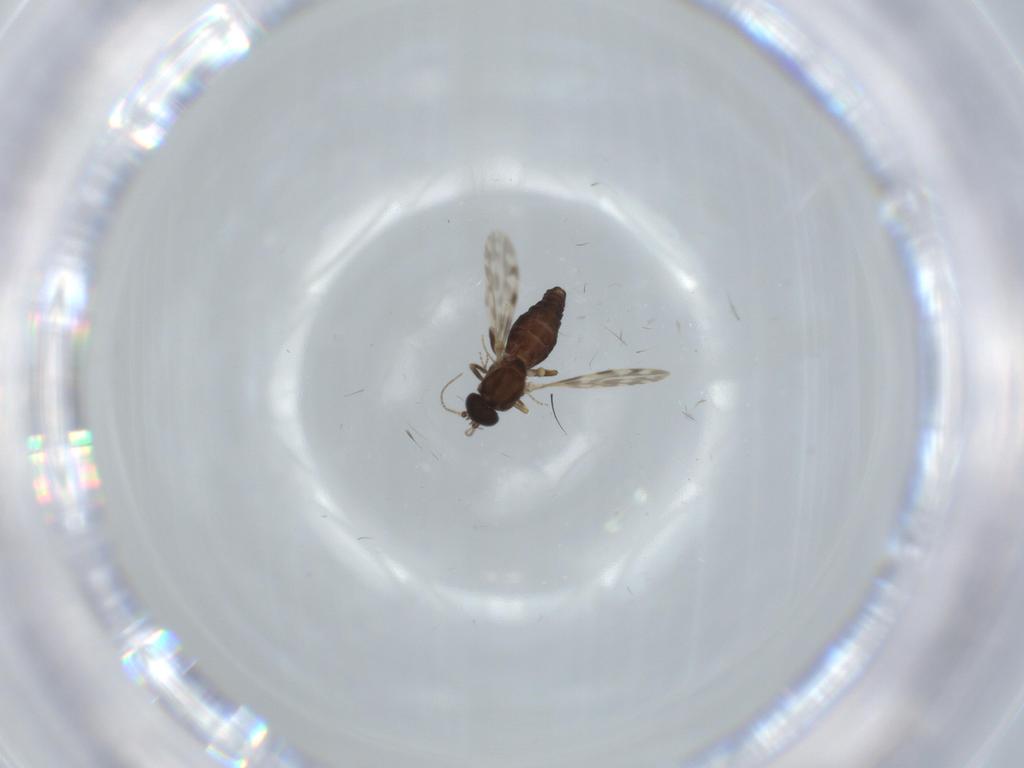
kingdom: Animalia
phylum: Arthropoda
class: Insecta
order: Diptera
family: Ceratopogonidae
